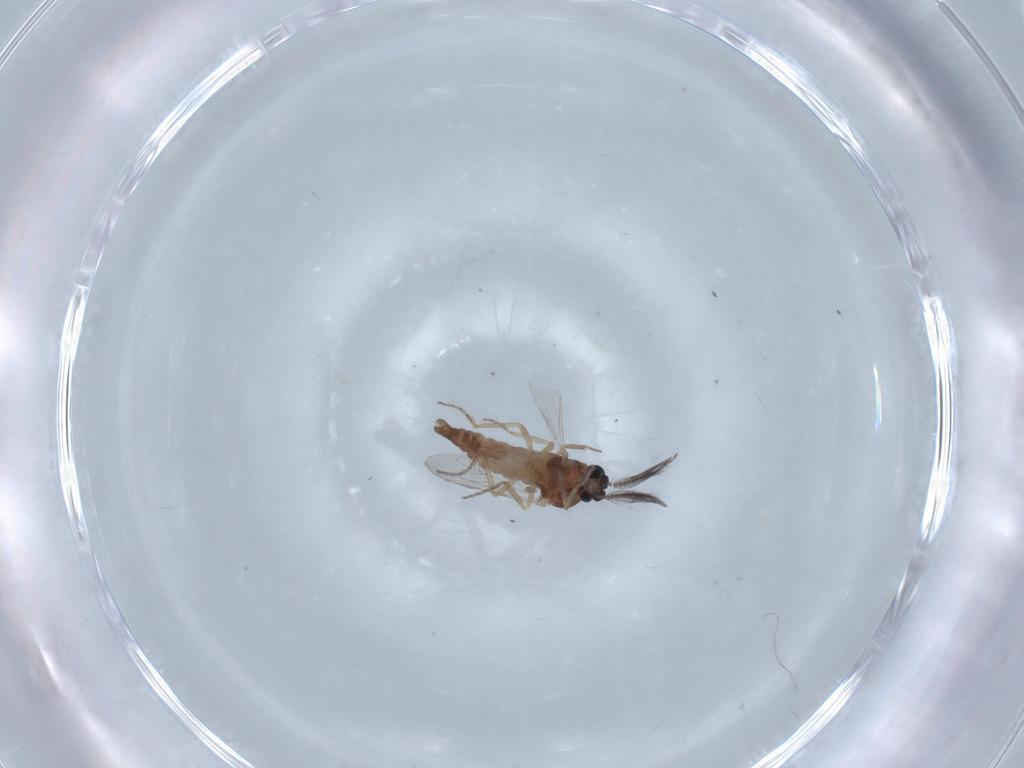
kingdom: Animalia
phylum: Arthropoda
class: Insecta
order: Diptera
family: Ceratopogonidae
